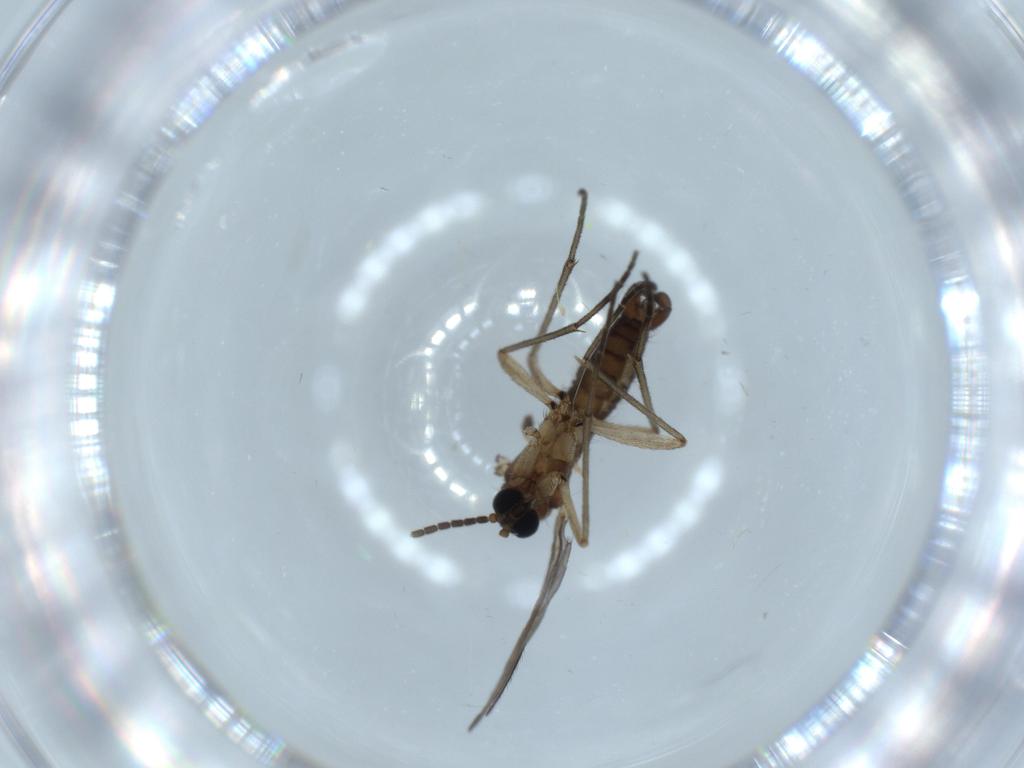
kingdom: Animalia
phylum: Arthropoda
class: Insecta
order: Diptera
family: Sciaridae
